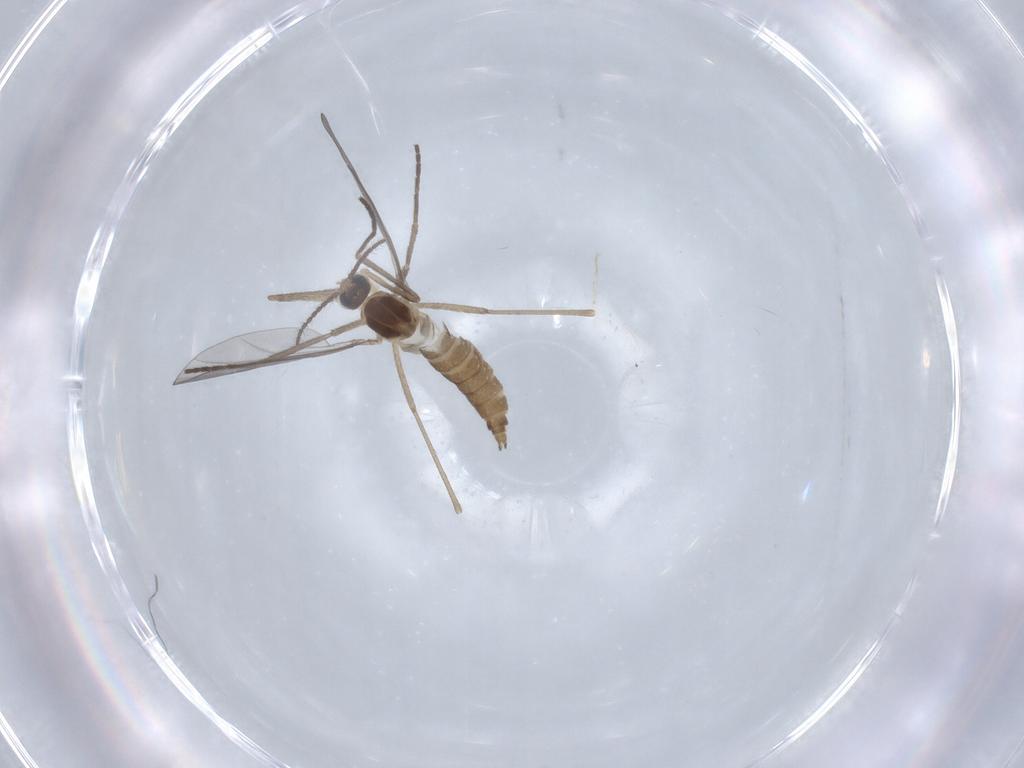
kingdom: Animalia
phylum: Arthropoda
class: Insecta
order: Diptera
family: Cecidomyiidae
